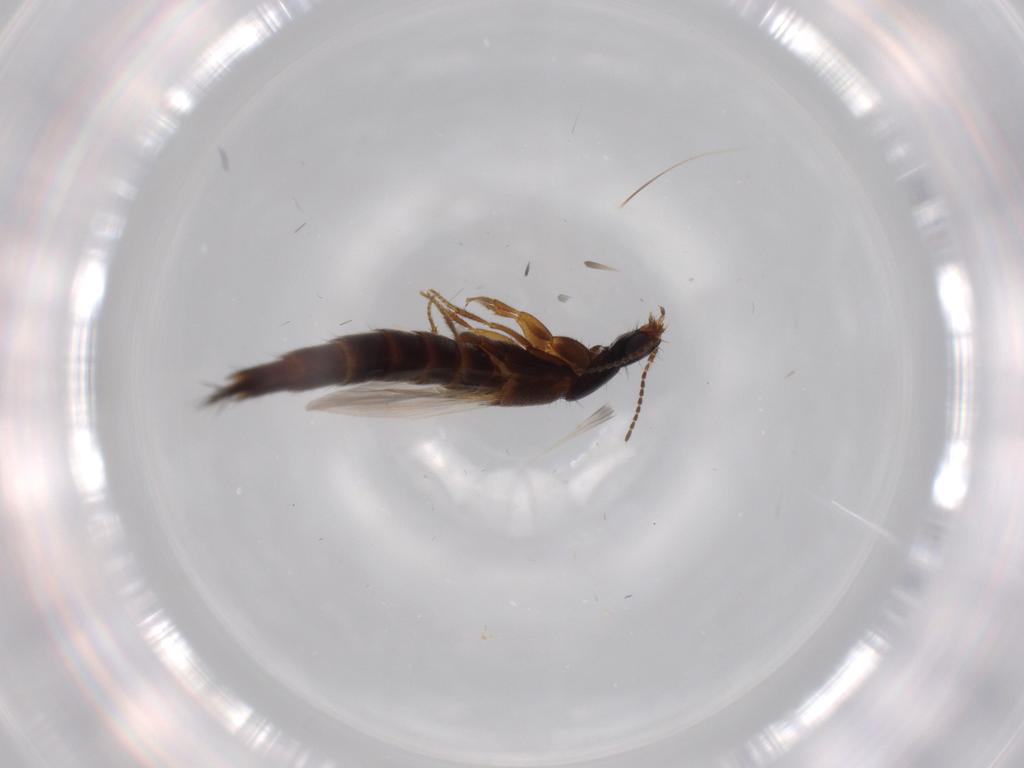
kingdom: Animalia
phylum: Arthropoda
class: Insecta
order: Coleoptera
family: Staphylinidae
